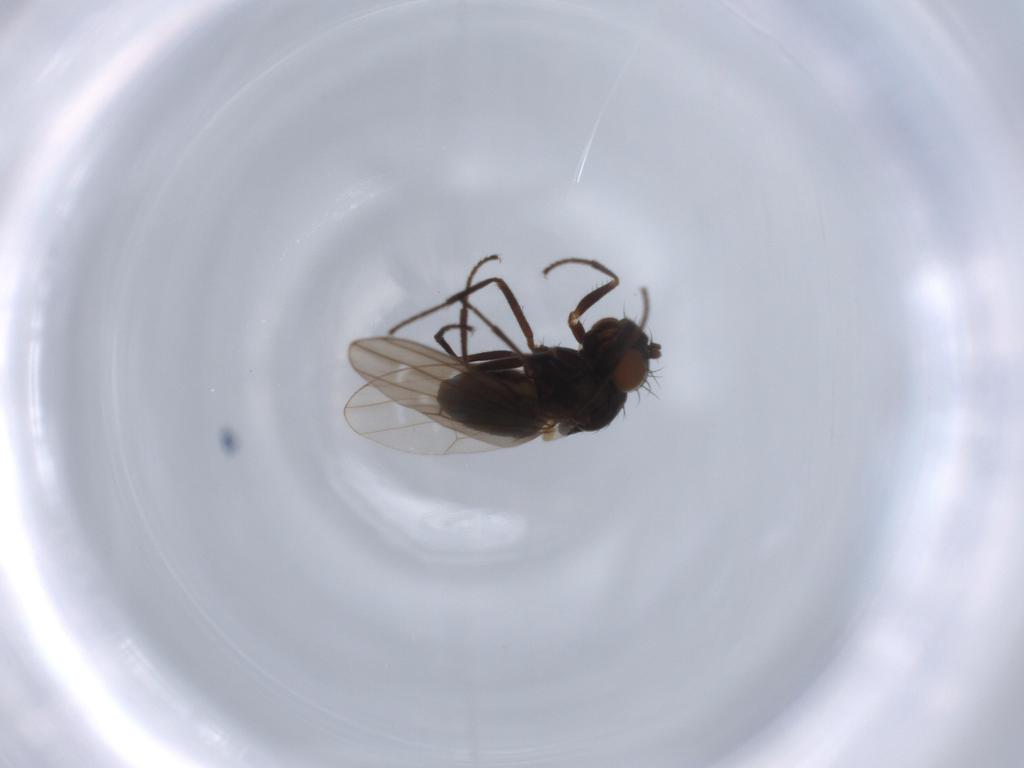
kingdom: Animalia
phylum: Arthropoda
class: Insecta
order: Diptera
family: Ephydridae
